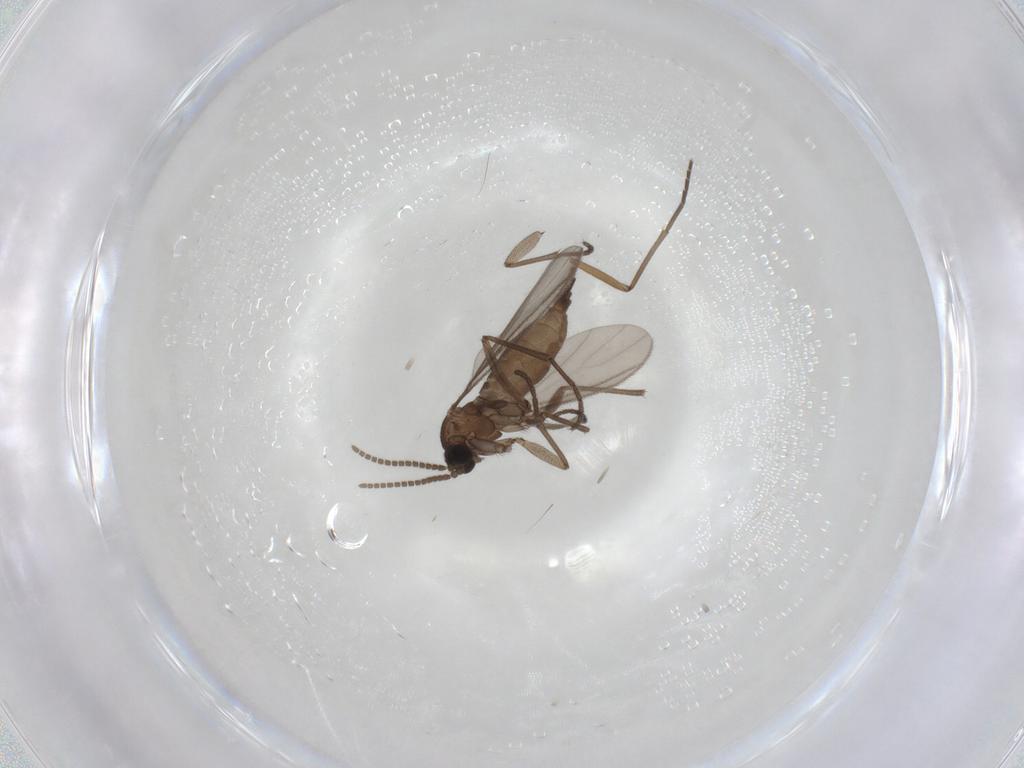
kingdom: Animalia
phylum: Arthropoda
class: Insecta
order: Diptera
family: Sciaridae
